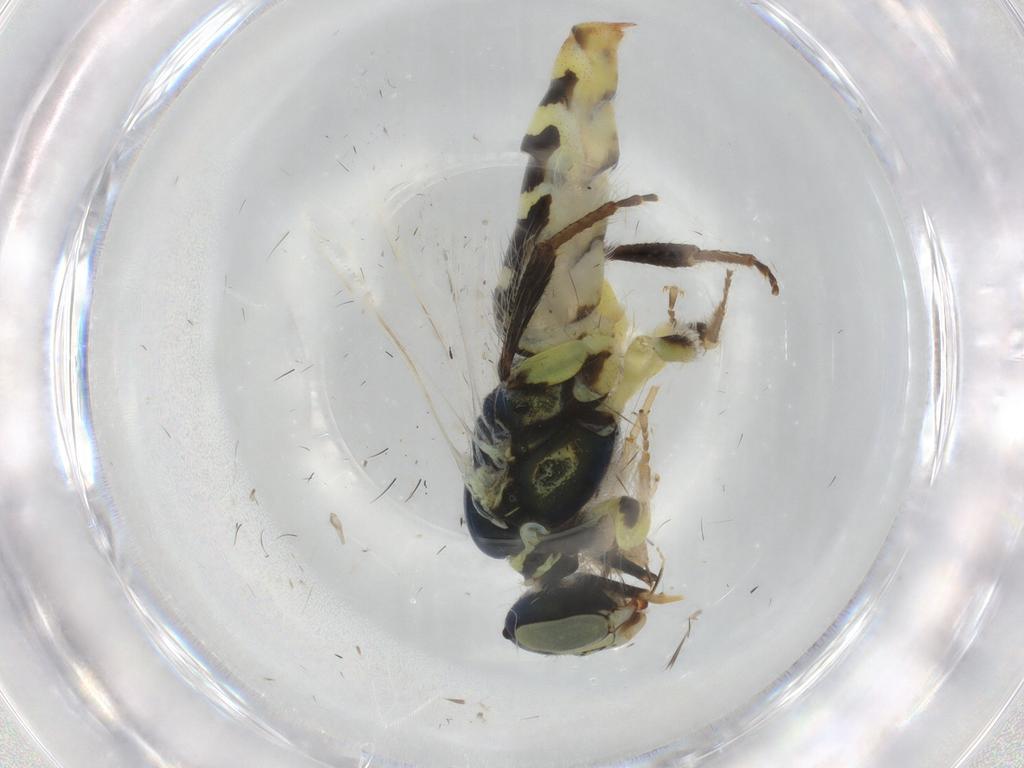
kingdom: Animalia
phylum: Arthropoda
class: Insecta
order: Hymenoptera
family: Andrenidae
